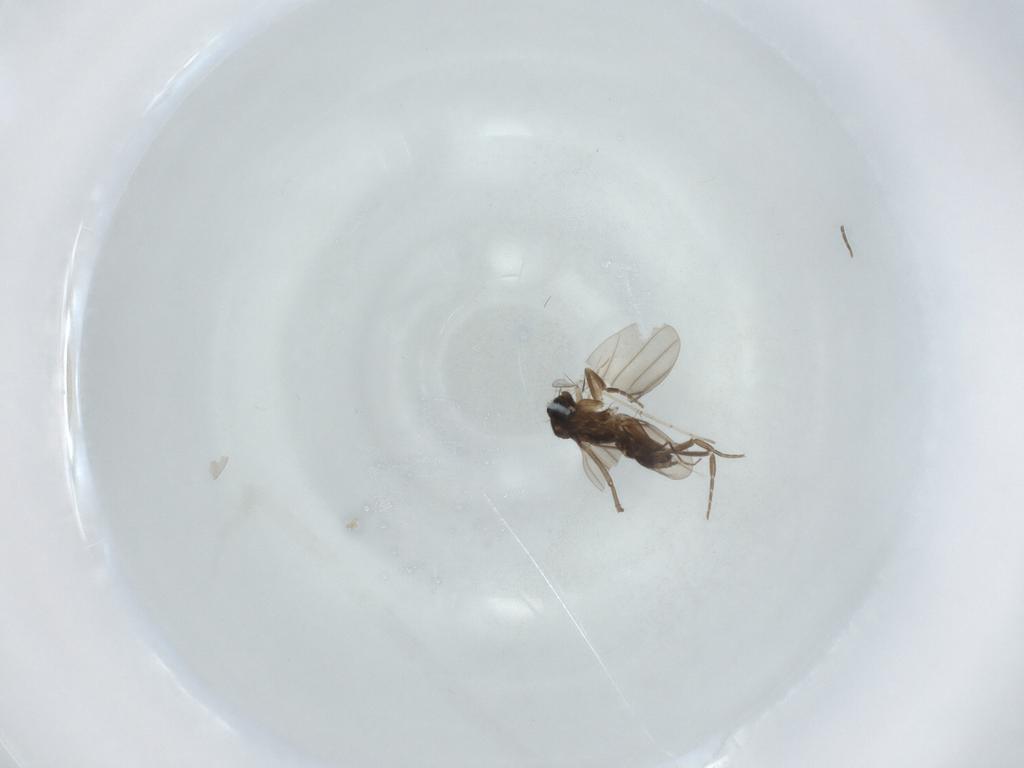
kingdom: Animalia
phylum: Arthropoda
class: Insecta
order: Diptera
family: Phoridae
